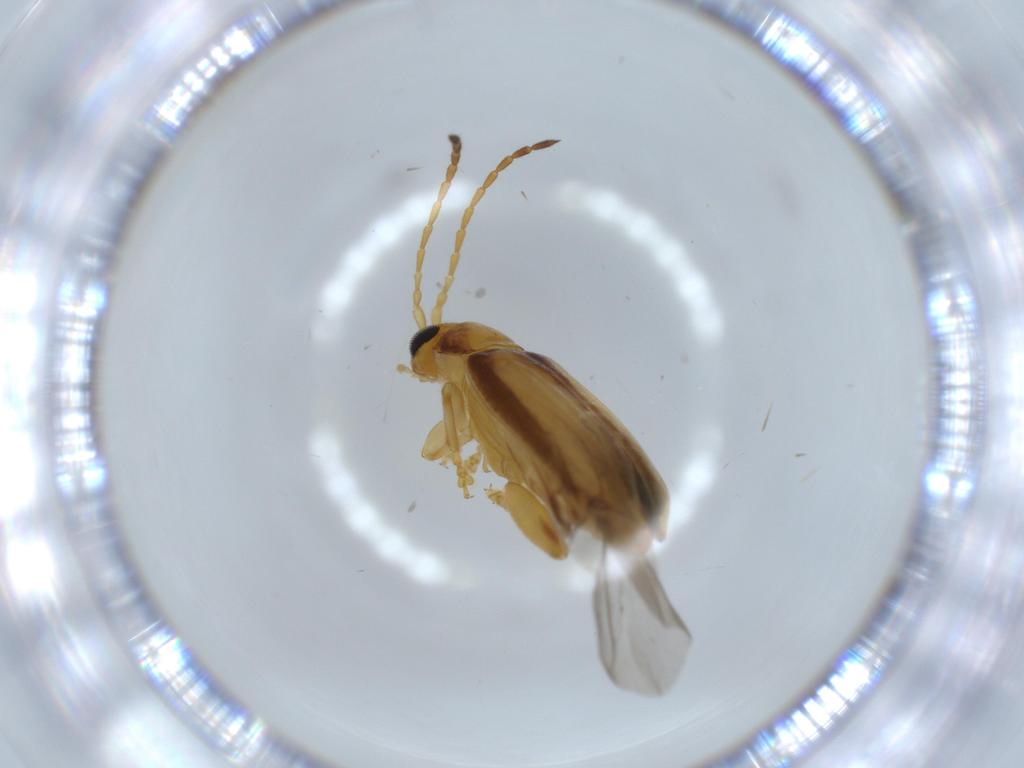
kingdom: Animalia
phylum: Arthropoda
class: Insecta
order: Coleoptera
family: Chrysomelidae
